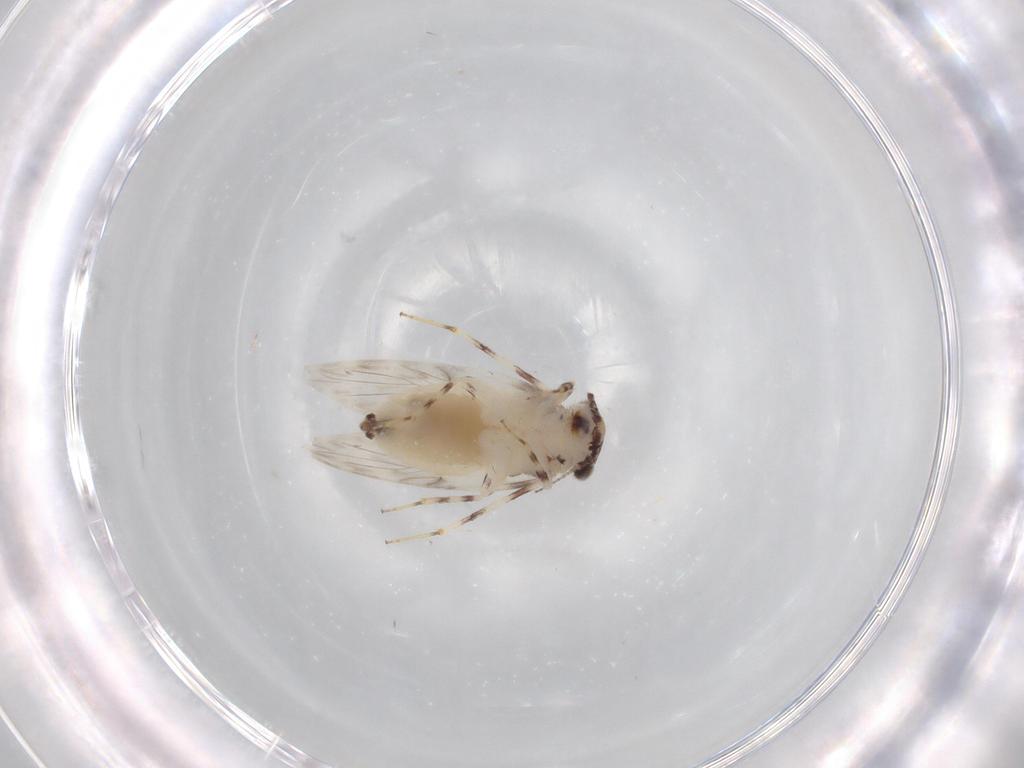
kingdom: Animalia
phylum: Arthropoda
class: Insecta
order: Psocodea
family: Lepidopsocidae
